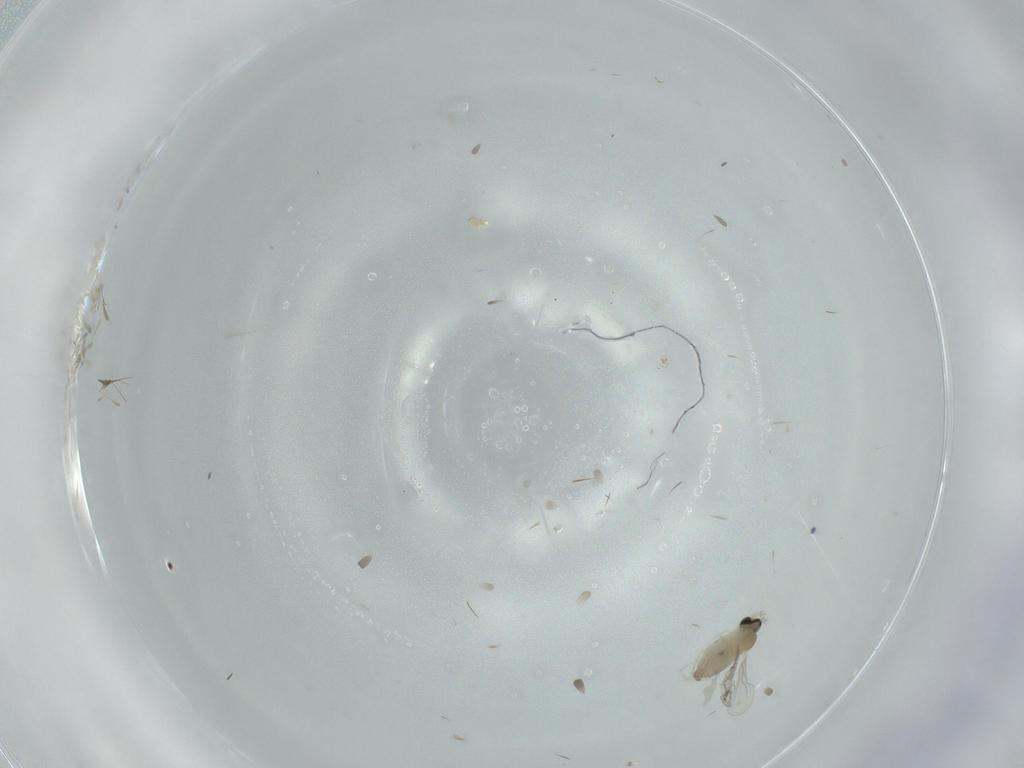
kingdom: Animalia
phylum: Arthropoda
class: Insecta
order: Diptera
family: Cecidomyiidae
